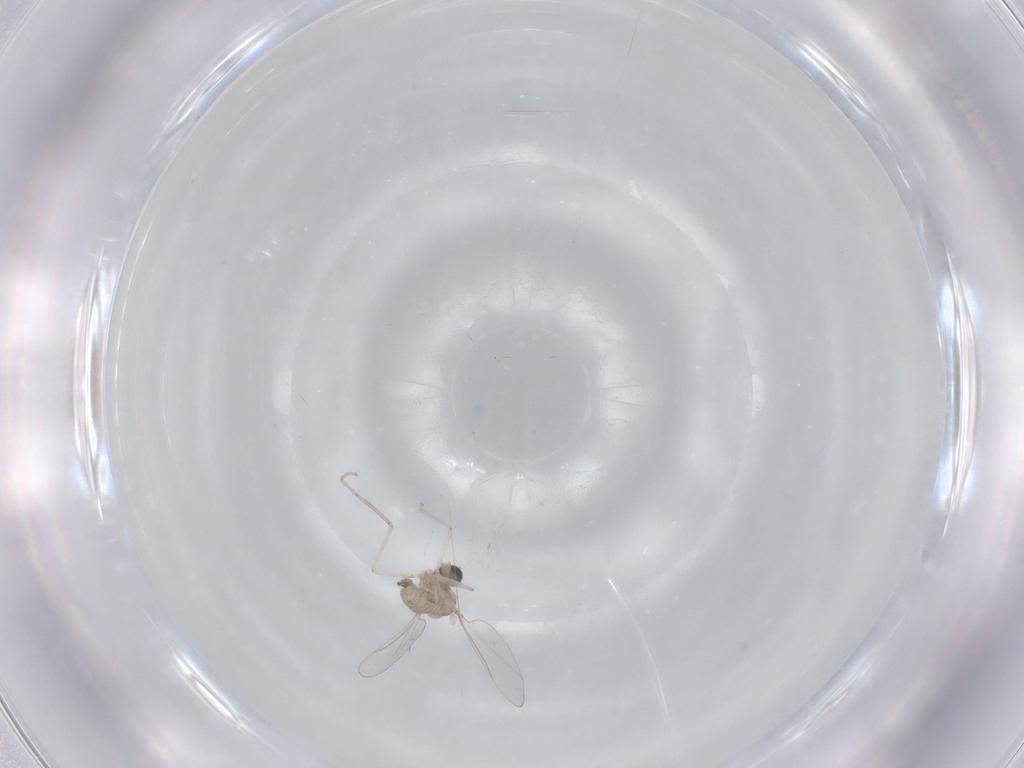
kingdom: Animalia
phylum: Arthropoda
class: Insecta
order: Diptera
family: Cecidomyiidae
